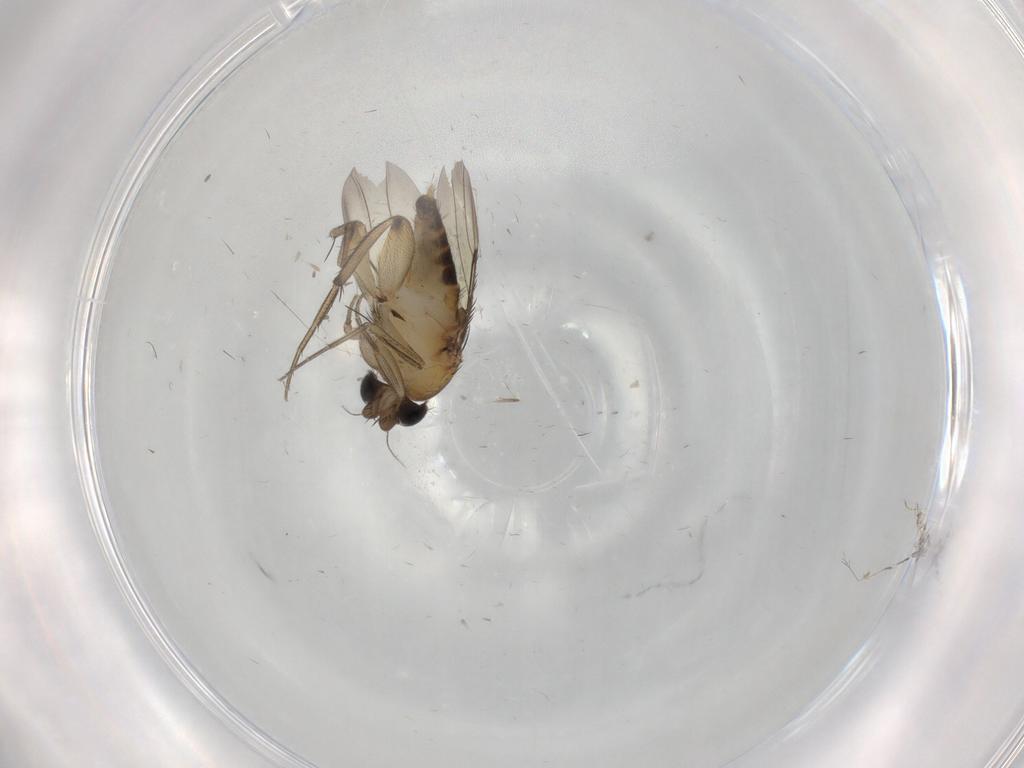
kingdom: Animalia
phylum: Arthropoda
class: Insecta
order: Diptera
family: Phoridae
